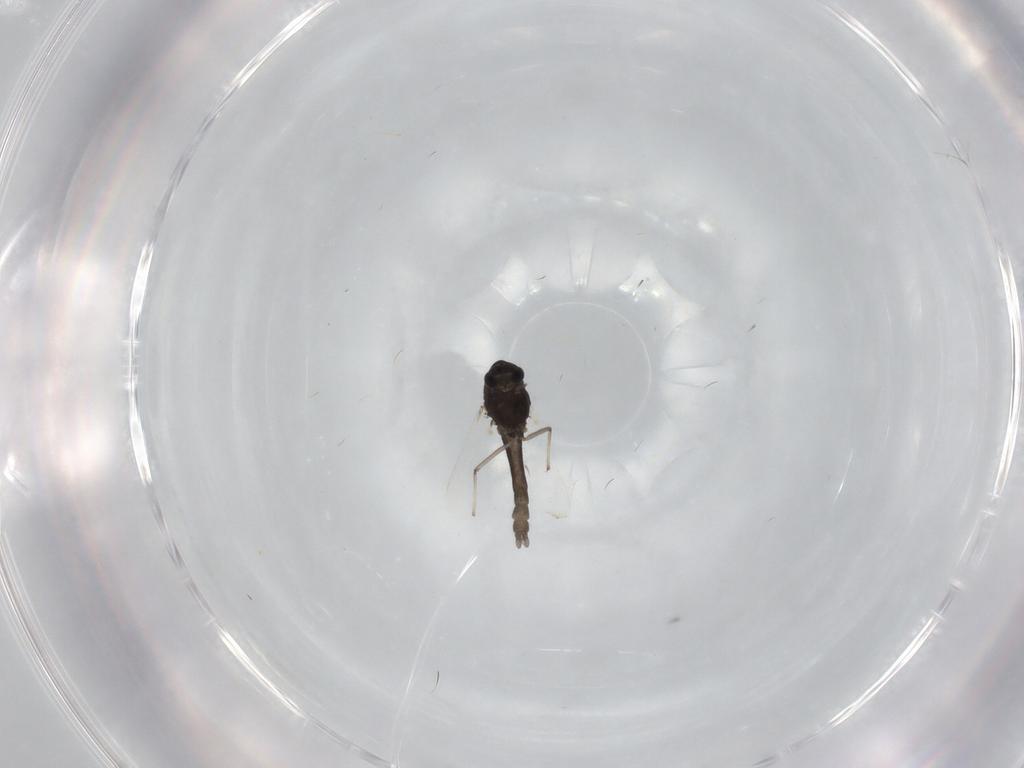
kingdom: Animalia
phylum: Arthropoda
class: Insecta
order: Diptera
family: Chironomidae
